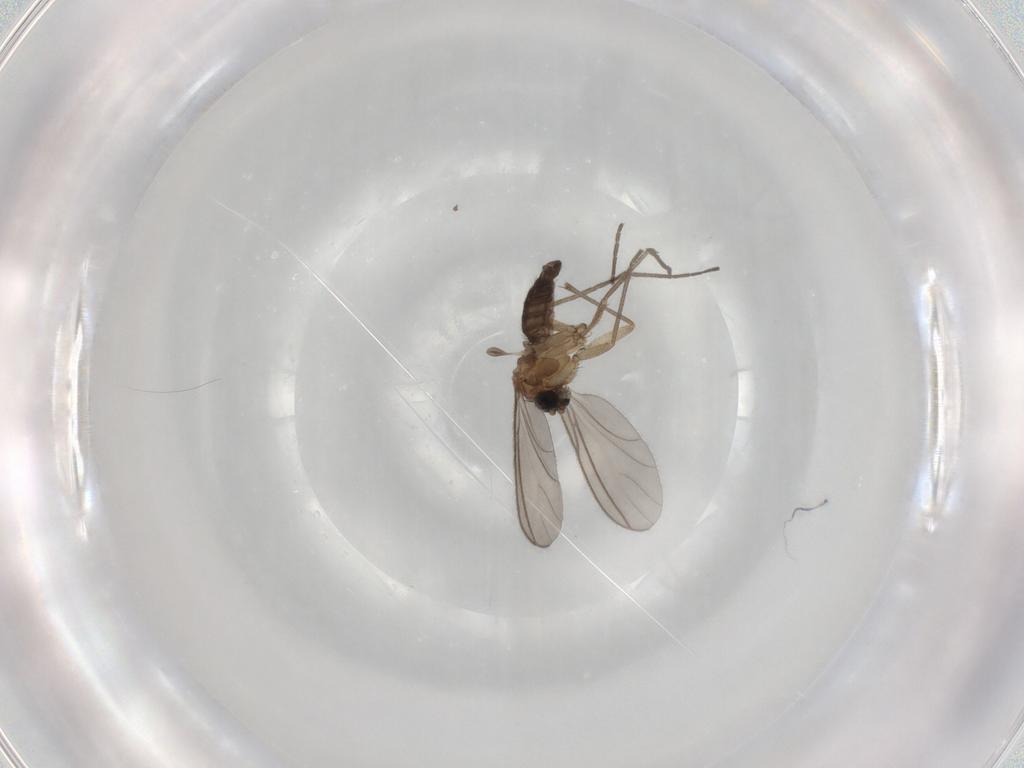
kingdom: Animalia
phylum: Arthropoda
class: Insecta
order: Diptera
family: Sciaridae
